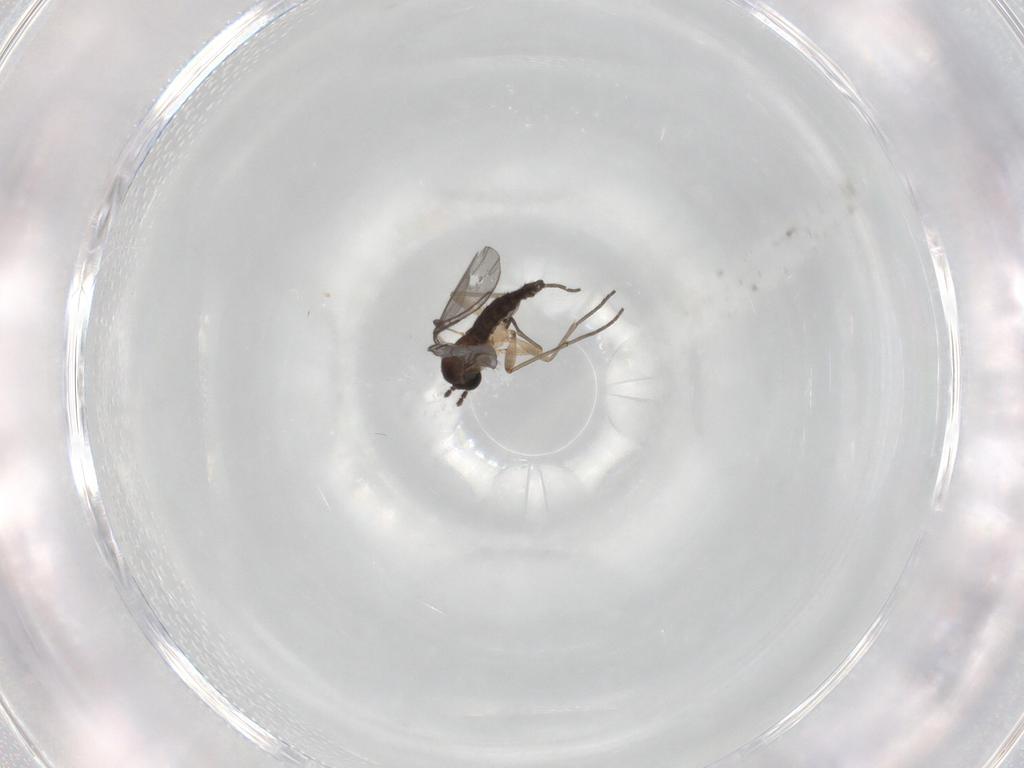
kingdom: Animalia
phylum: Arthropoda
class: Insecta
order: Diptera
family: Sciaridae
